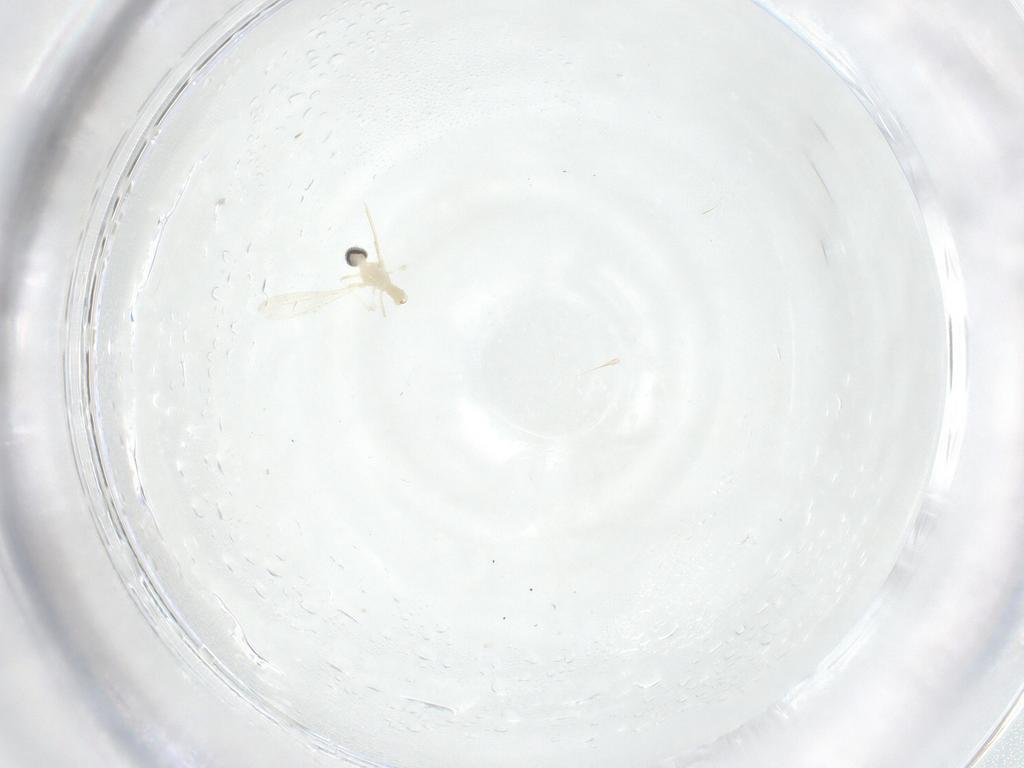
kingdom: Animalia
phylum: Arthropoda
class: Insecta
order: Diptera
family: Cecidomyiidae
